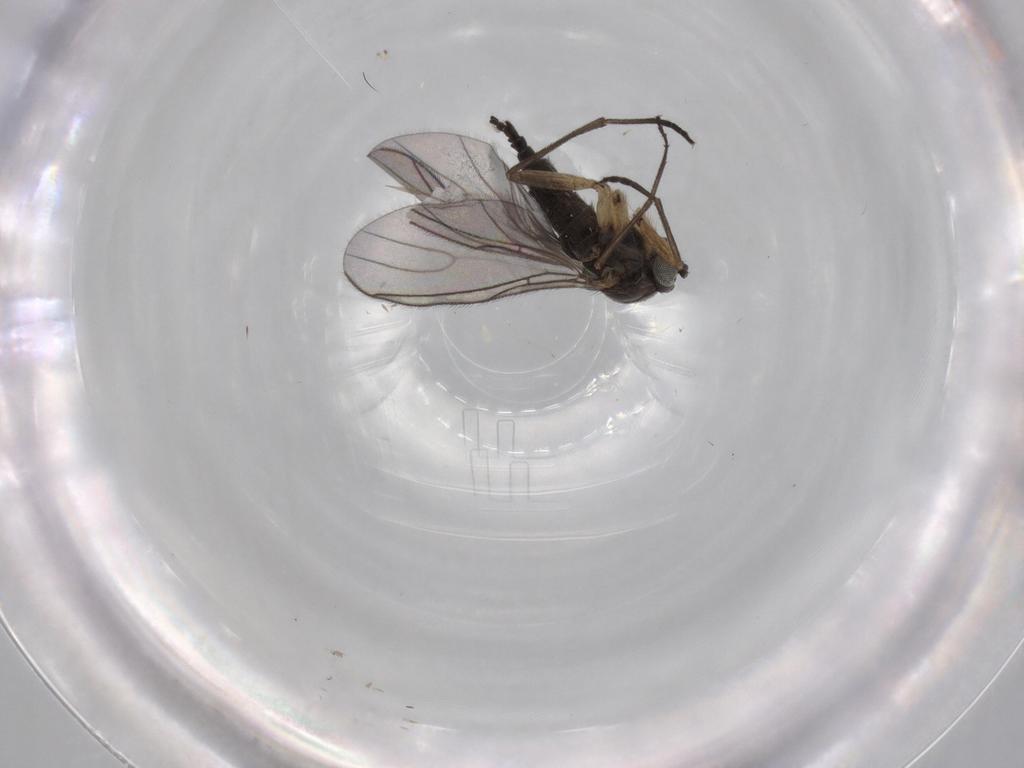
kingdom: Animalia
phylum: Arthropoda
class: Insecta
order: Diptera
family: Sciaridae
